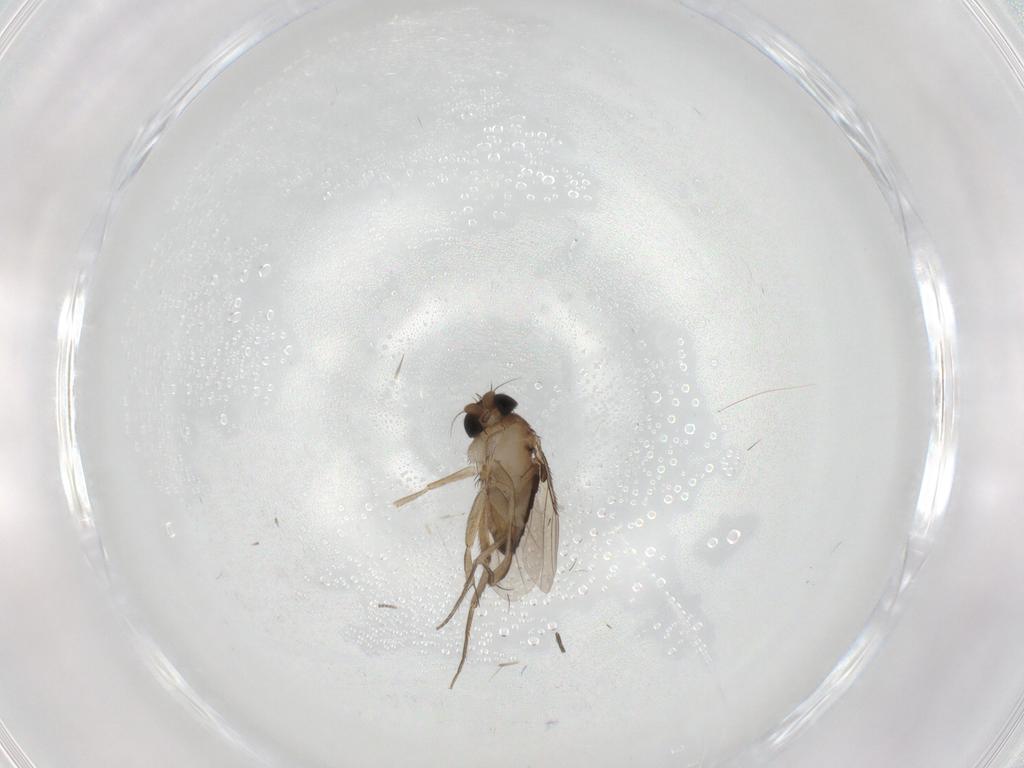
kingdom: Animalia
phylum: Arthropoda
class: Insecta
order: Diptera
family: Phoridae
